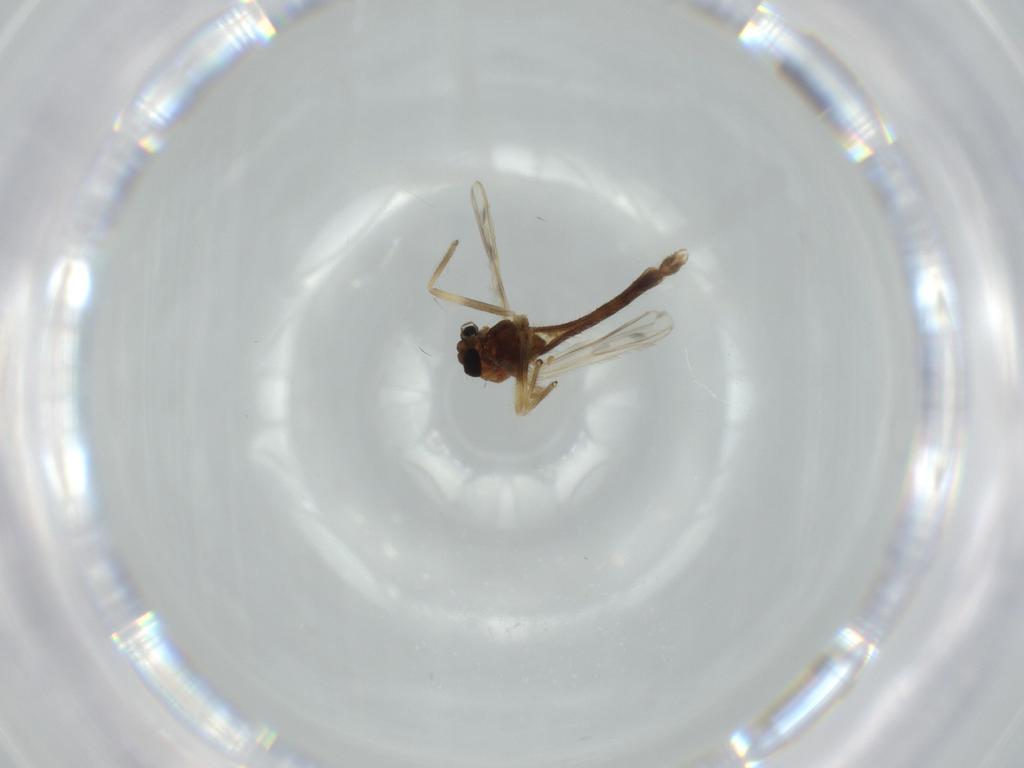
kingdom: Animalia
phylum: Arthropoda
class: Insecta
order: Diptera
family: Chironomidae
